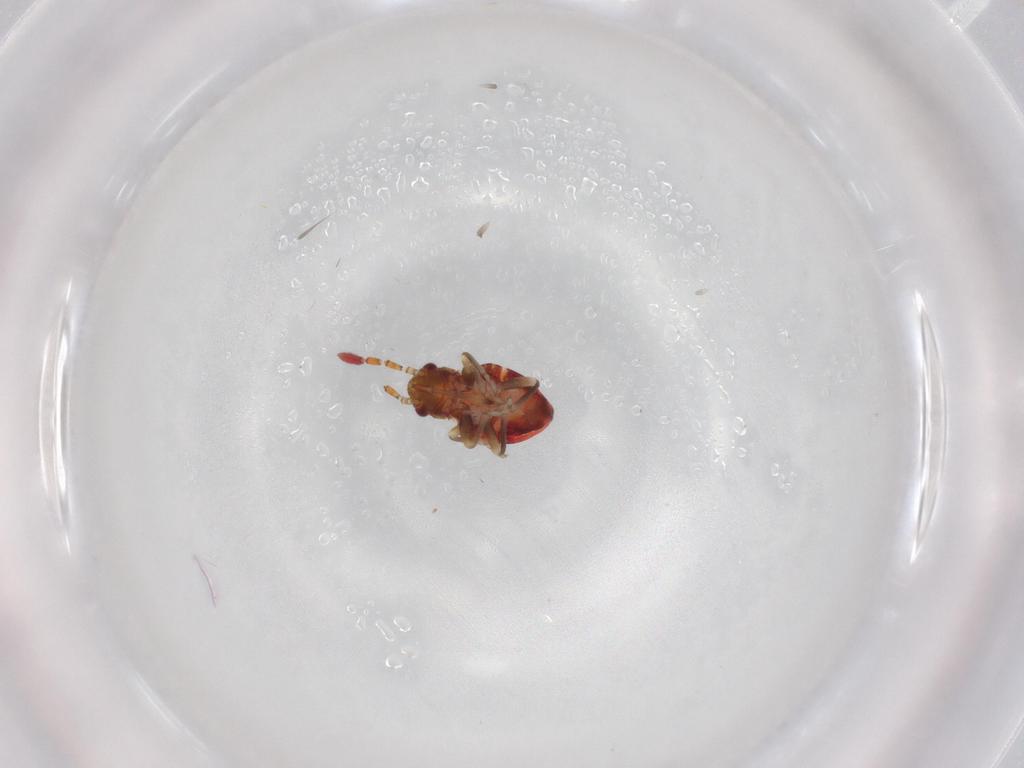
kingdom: Animalia
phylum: Arthropoda
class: Insecta
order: Hemiptera
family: Rhyparochromidae
